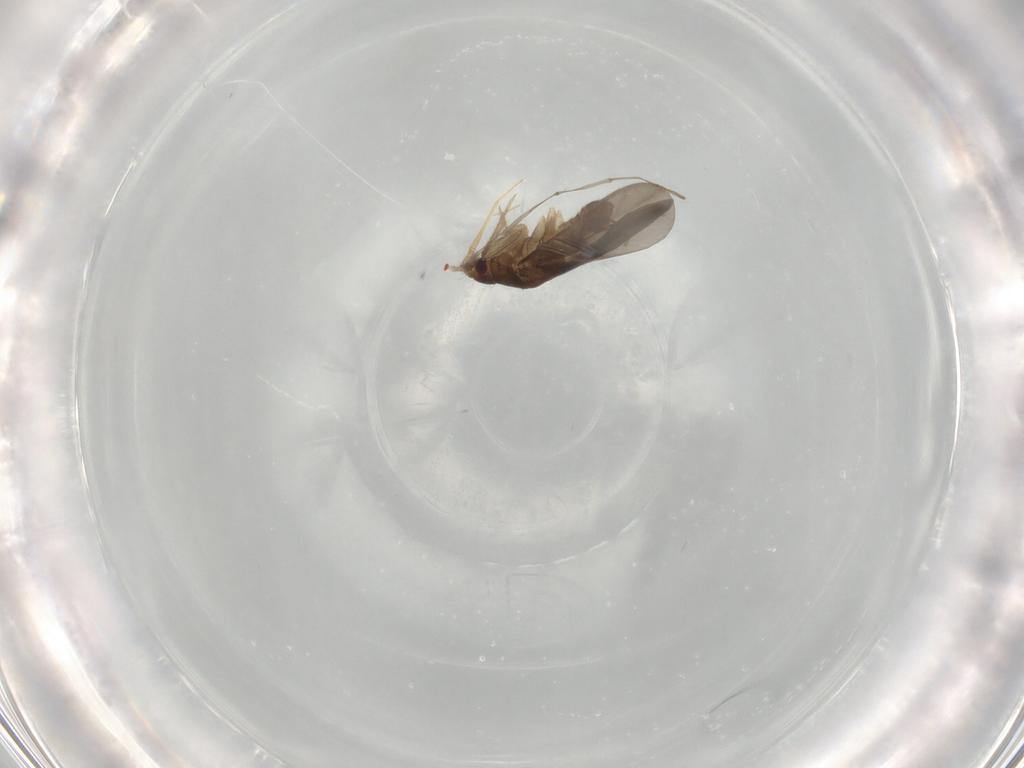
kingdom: Animalia
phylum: Arthropoda
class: Insecta
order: Hemiptera
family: Ceratocombidae
